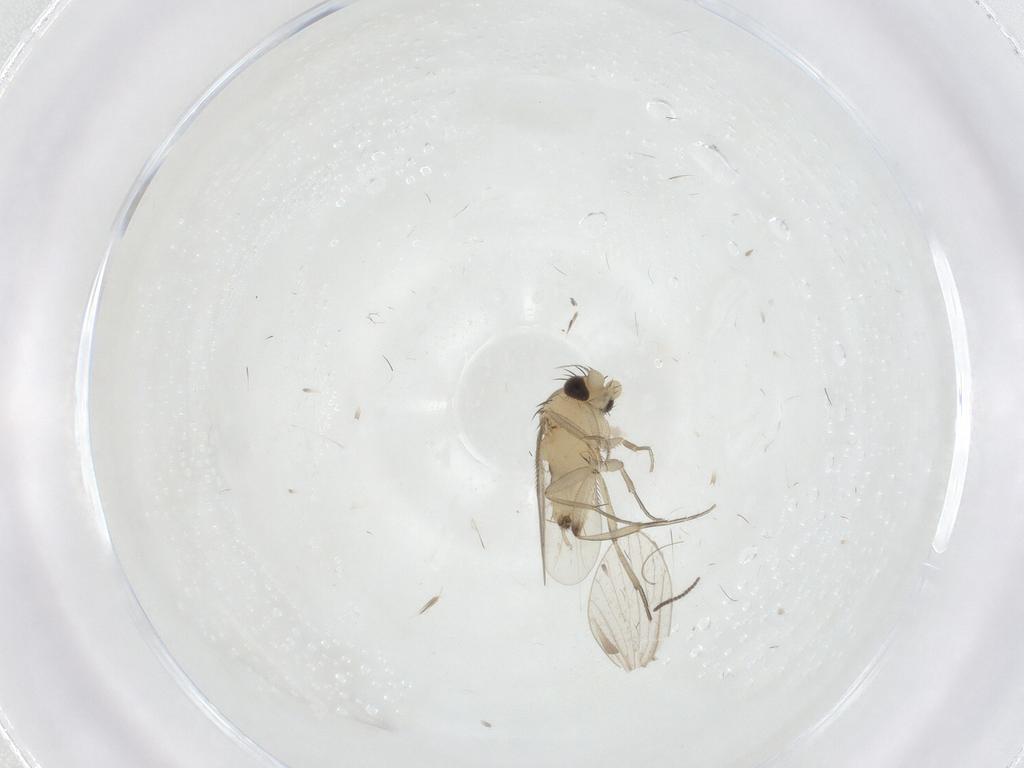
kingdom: Animalia
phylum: Arthropoda
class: Insecta
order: Diptera
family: Phoridae
